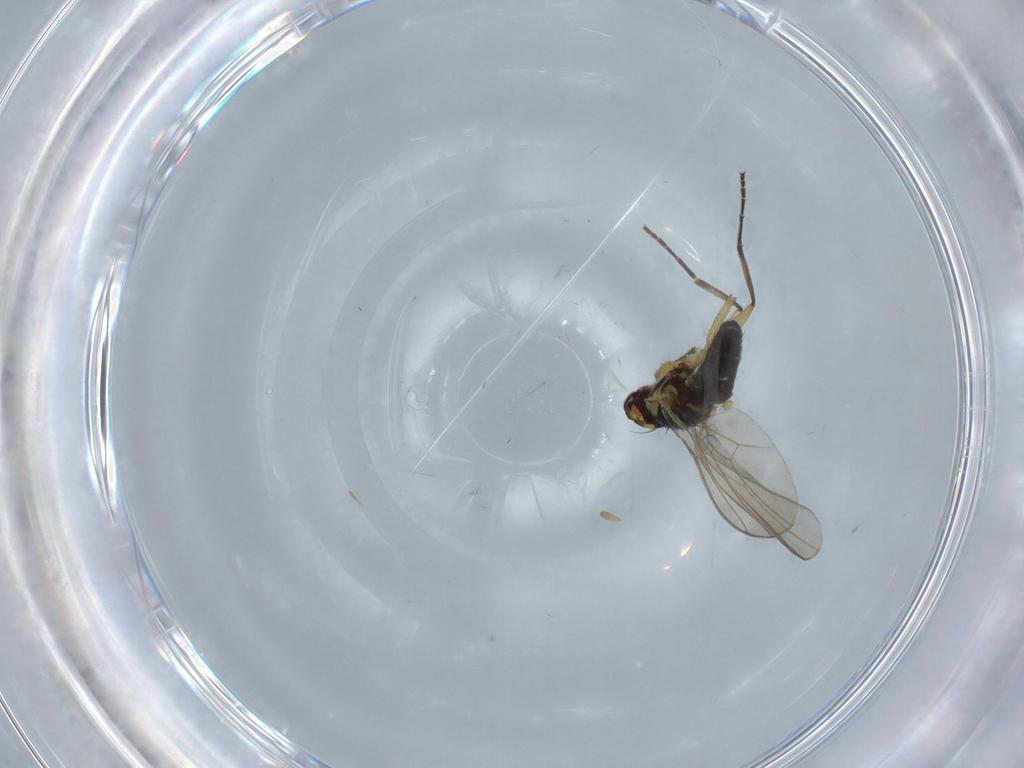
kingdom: Animalia
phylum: Arthropoda
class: Insecta
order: Diptera
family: Agromyzidae
